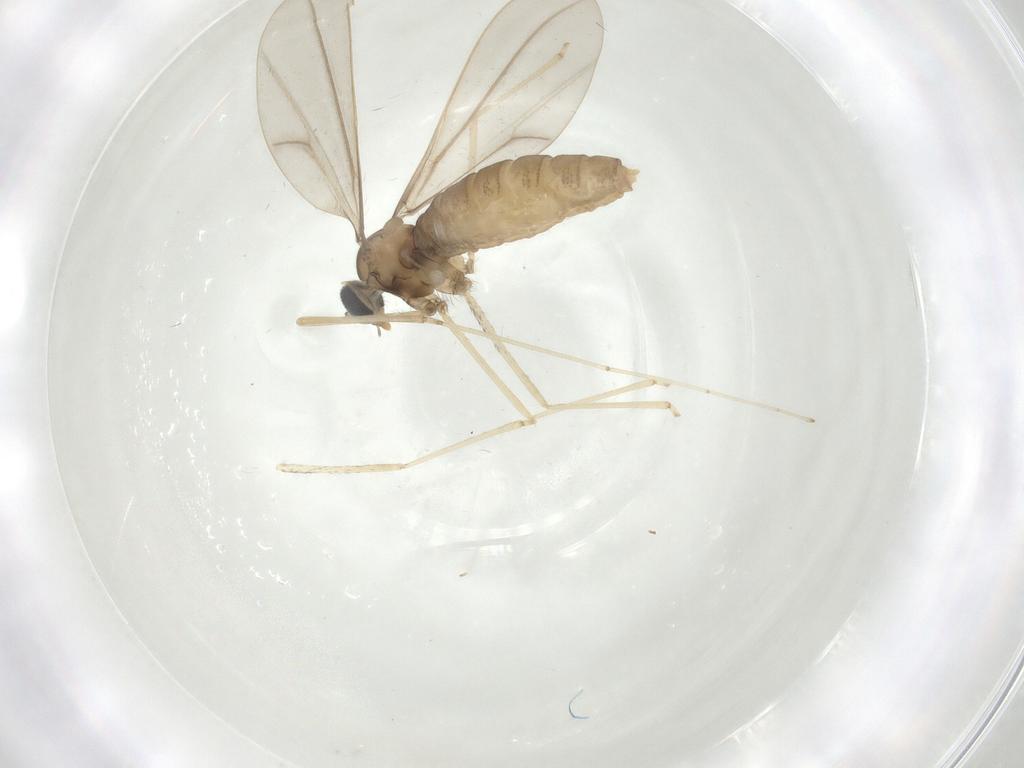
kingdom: Animalia
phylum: Arthropoda
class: Insecta
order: Diptera
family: Cecidomyiidae
